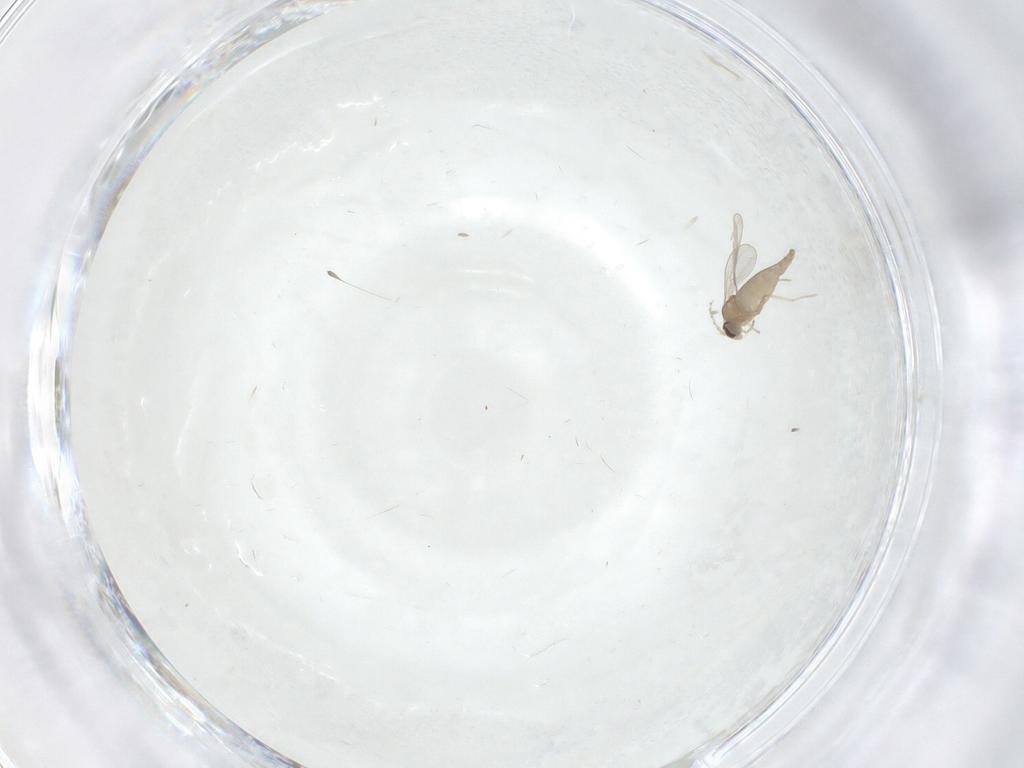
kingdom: Animalia
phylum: Arthropoda
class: Insecta
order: Diptera
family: Cecidomyiidae
